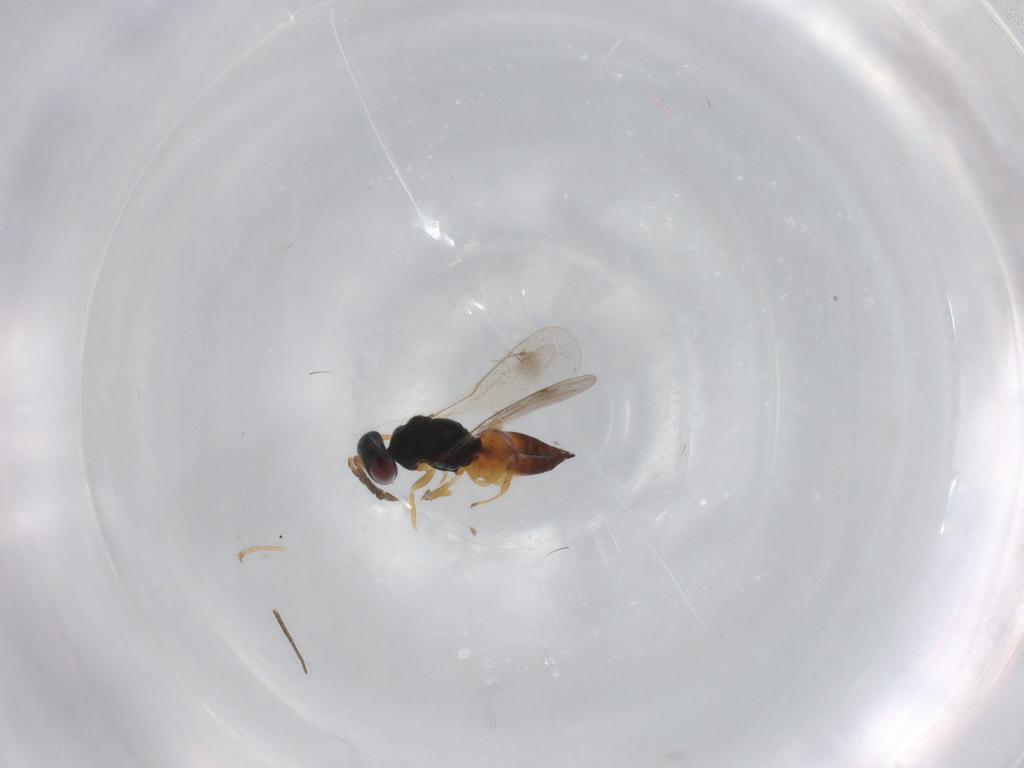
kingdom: Animalia
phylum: Arthropoda
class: Insecta
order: Hymenoptera
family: Eulophidae
